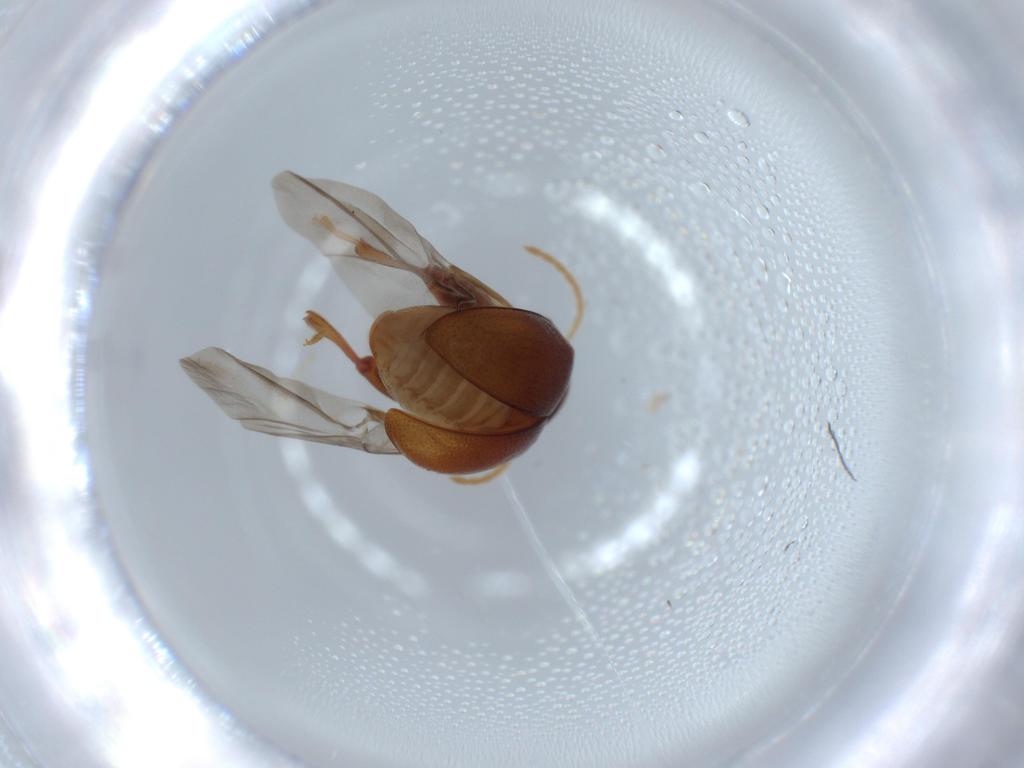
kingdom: Animalia
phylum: Arthropoda
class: Insecta
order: Coleoptera
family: Chrysomelidae
